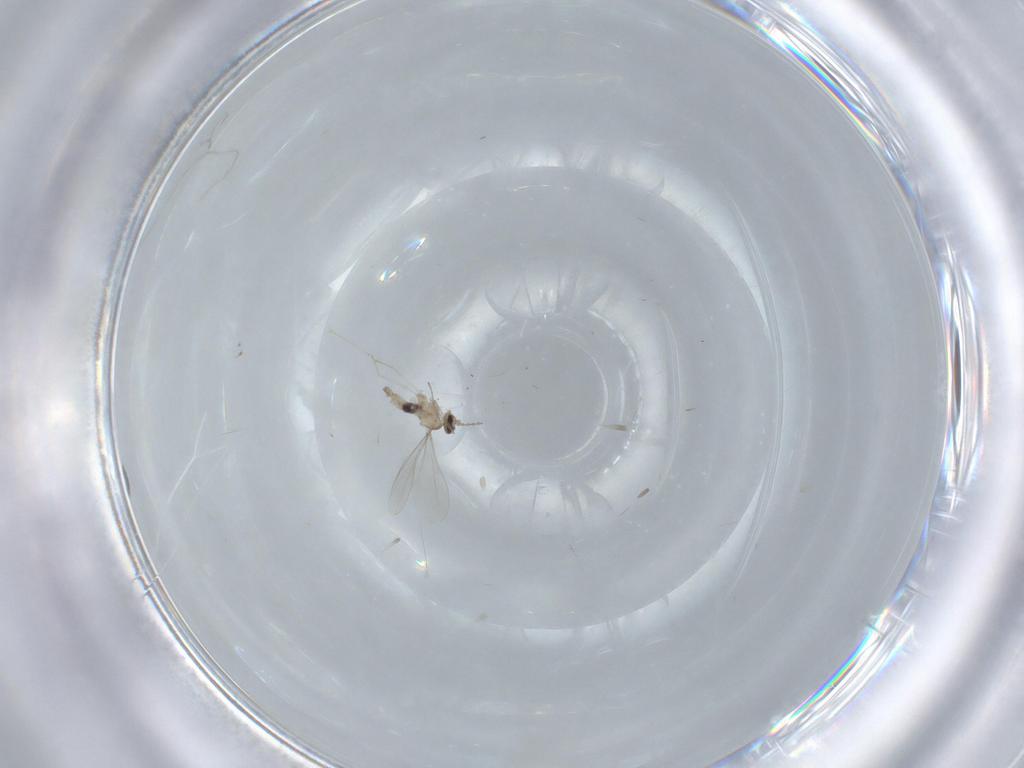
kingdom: Animalia
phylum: Arthropoda
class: Insecta
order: Diptera
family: Cecidomyiidae
